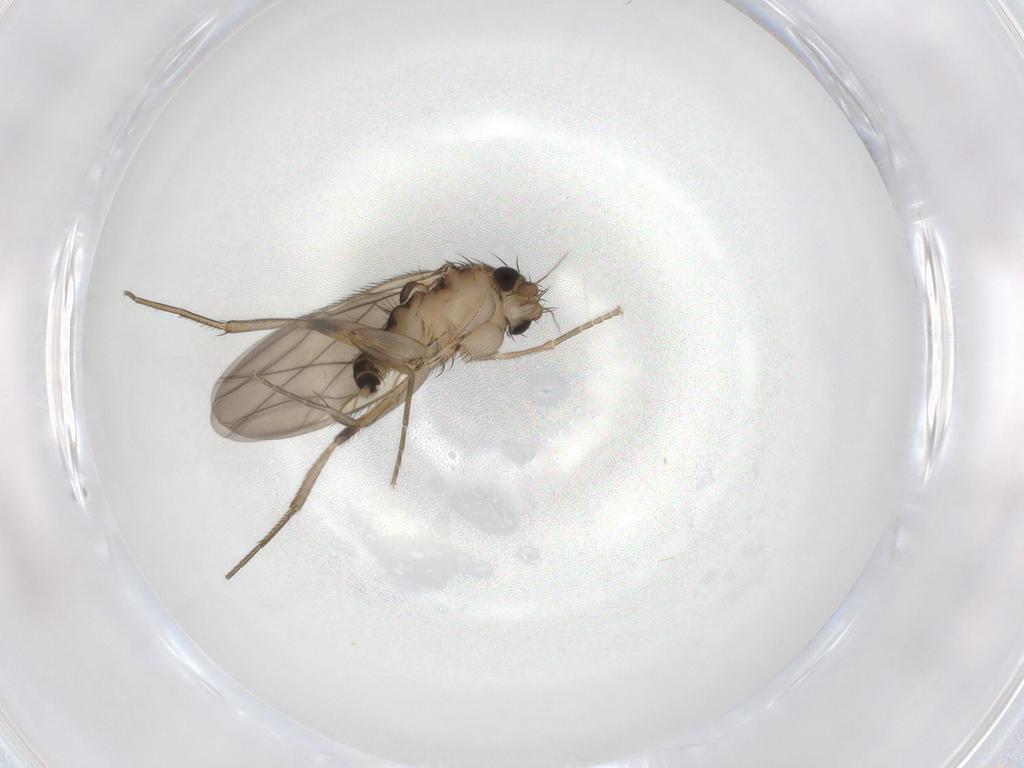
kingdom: Animalia
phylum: Arthropoda
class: Insecta
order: Diptera
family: Phoridae
